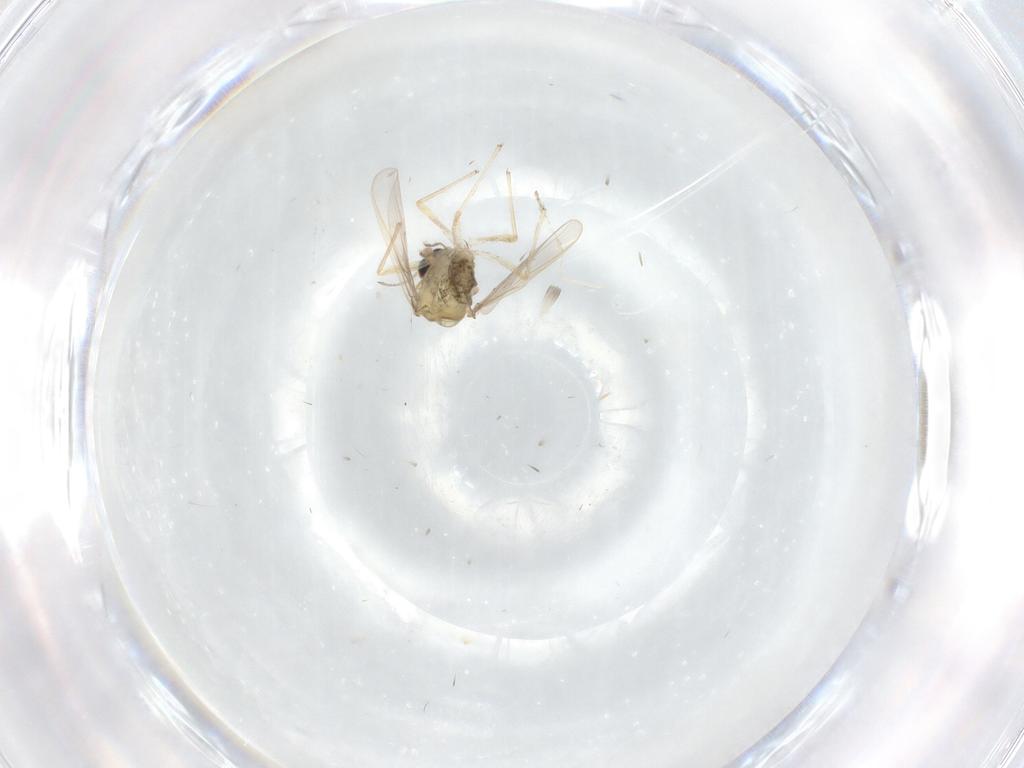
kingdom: Animalia
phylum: Arthropoda
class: Insecta
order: Diptera
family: Chironomidae
